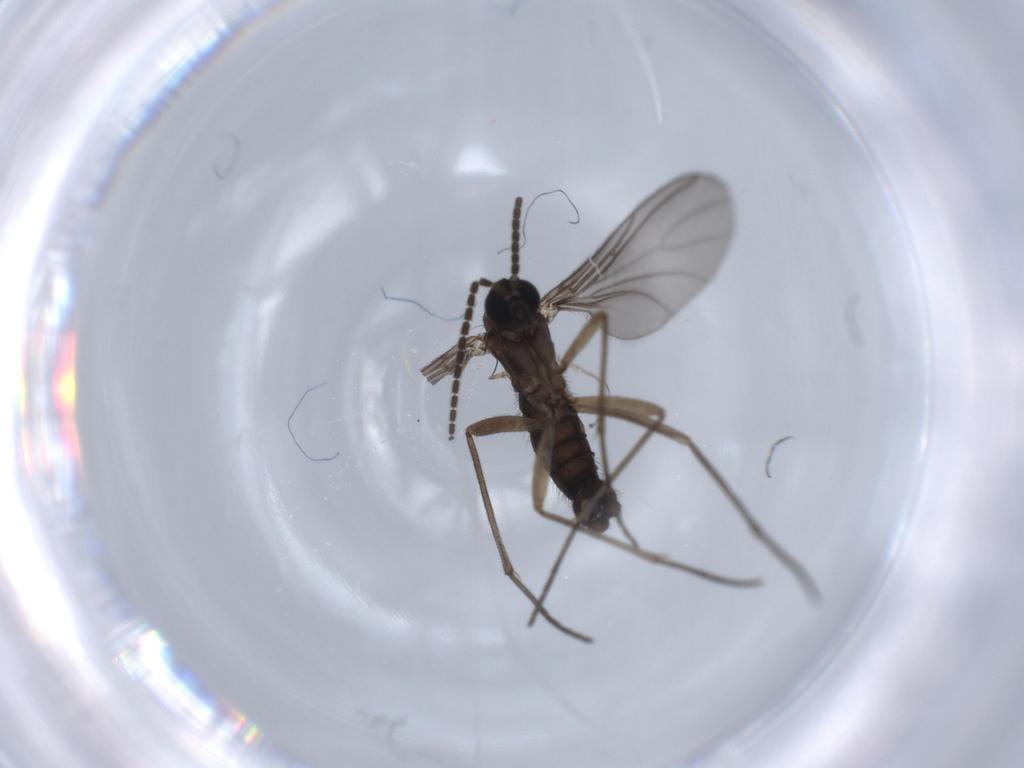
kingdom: Animalia
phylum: Arthropoda
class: Insecta
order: Diptera
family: Sciaridae
